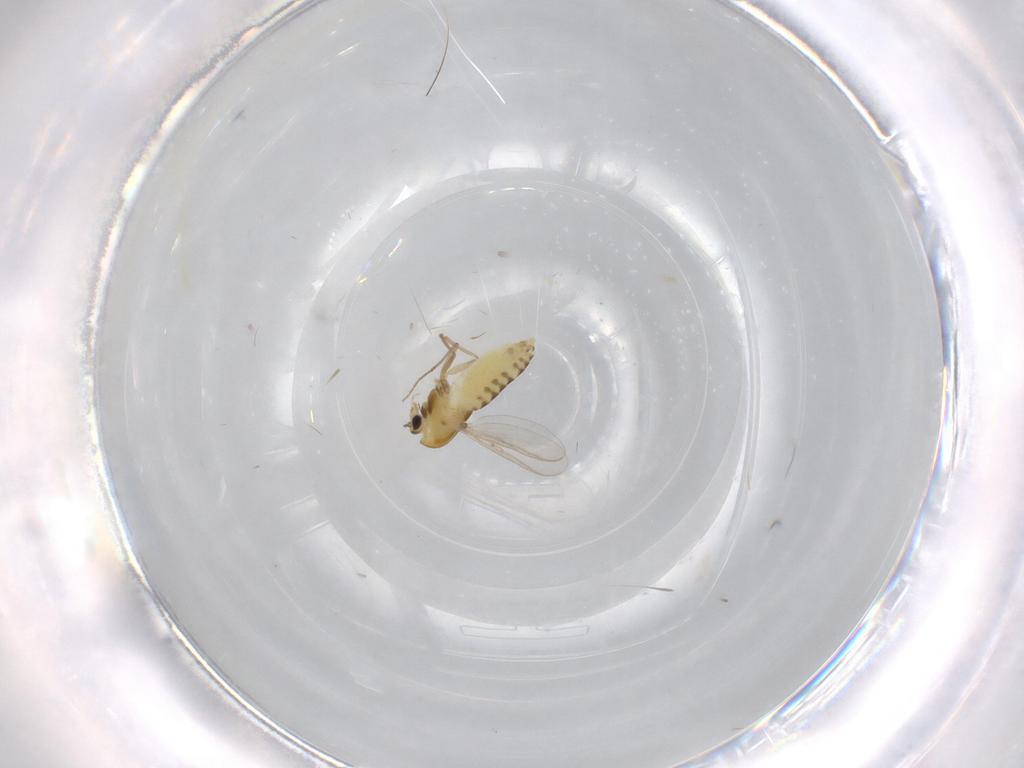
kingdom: Animalia
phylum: Arthropoda
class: Insecta
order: Diptera
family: Chironomidae
